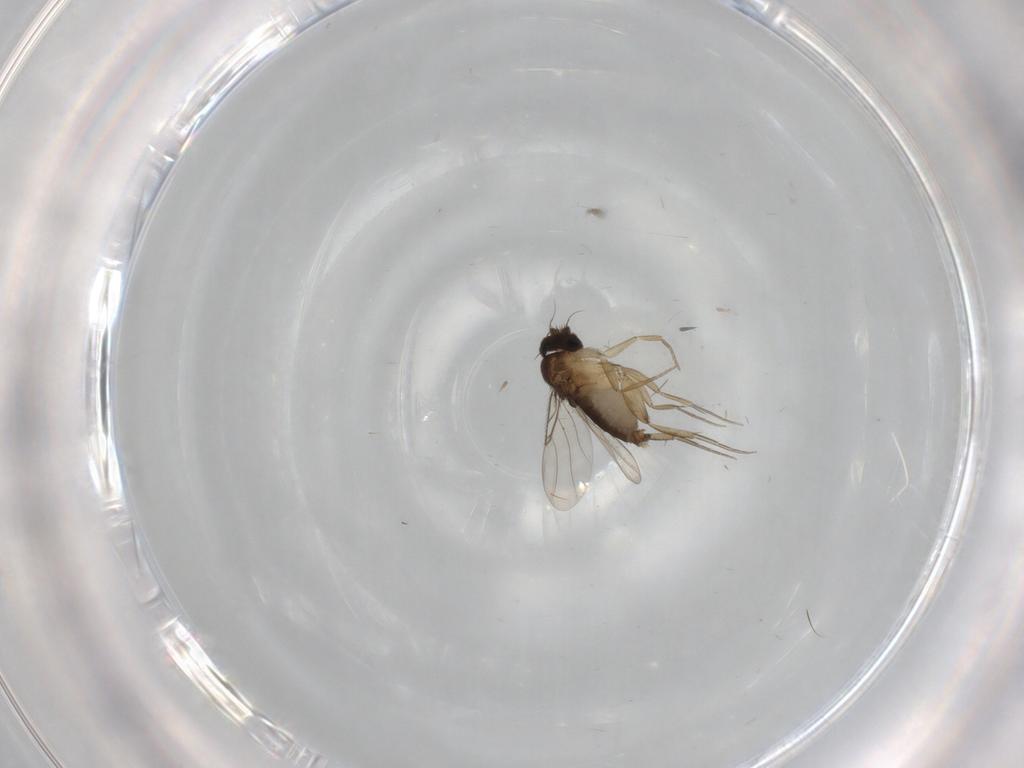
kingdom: Animalia
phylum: Arthropoda
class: Insecta
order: Diptera
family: Phoridae
